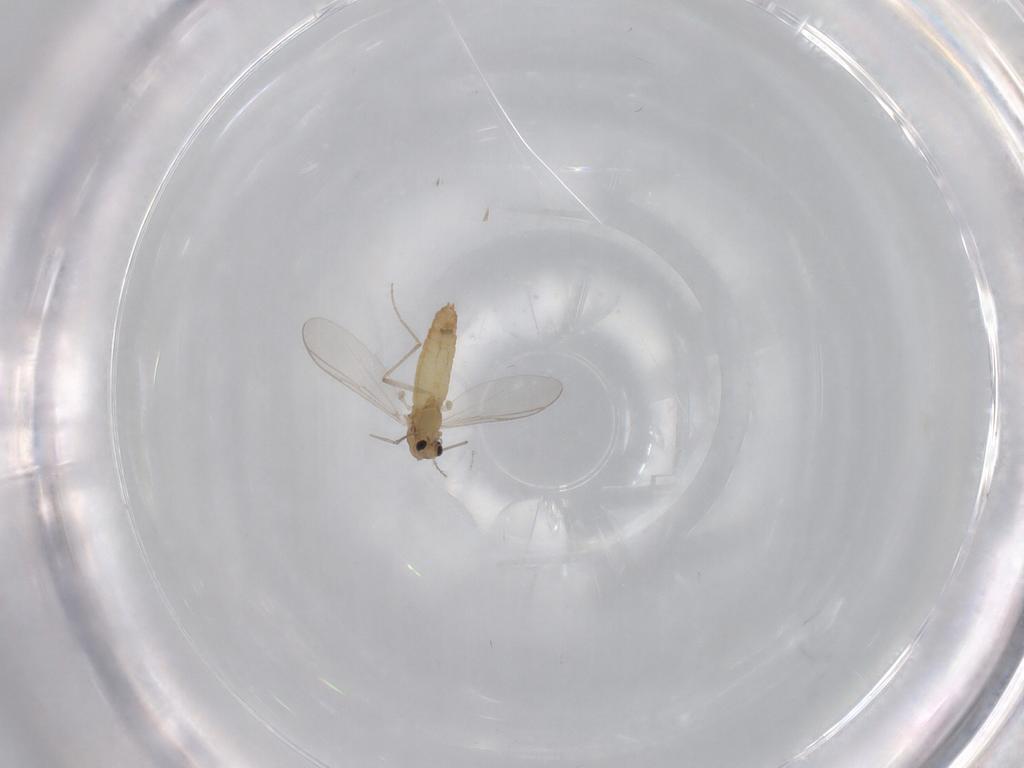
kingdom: Animalia
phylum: Arthropoda
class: Insecta
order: Diptera
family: Chironomidae
